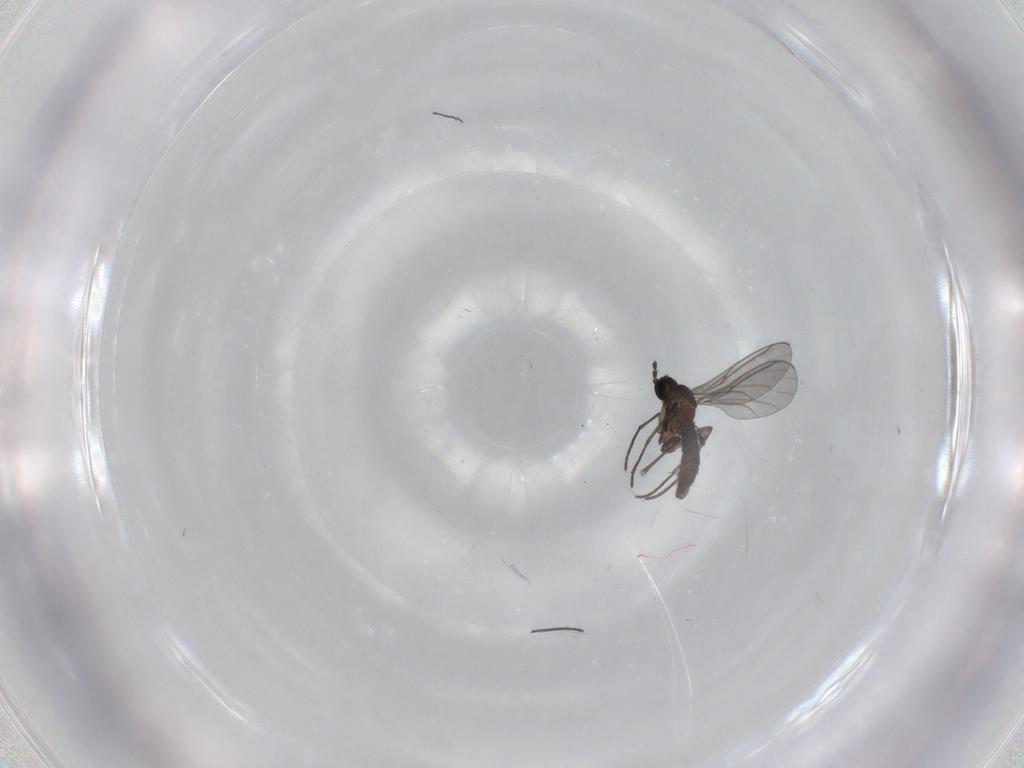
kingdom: Animalia
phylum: Arthropoda
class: Insecta
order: Diptera
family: Cecidomyiidae
